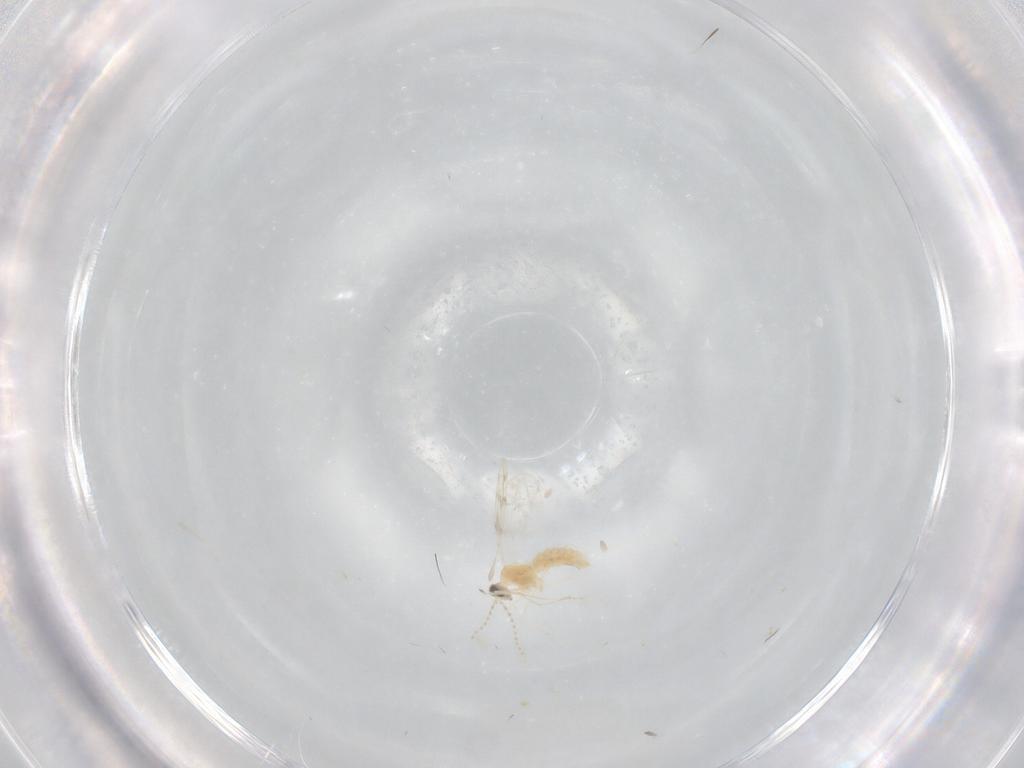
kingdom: Animalia
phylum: Arthropoda
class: Insecta
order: Diptera
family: Cecidomyiidae
